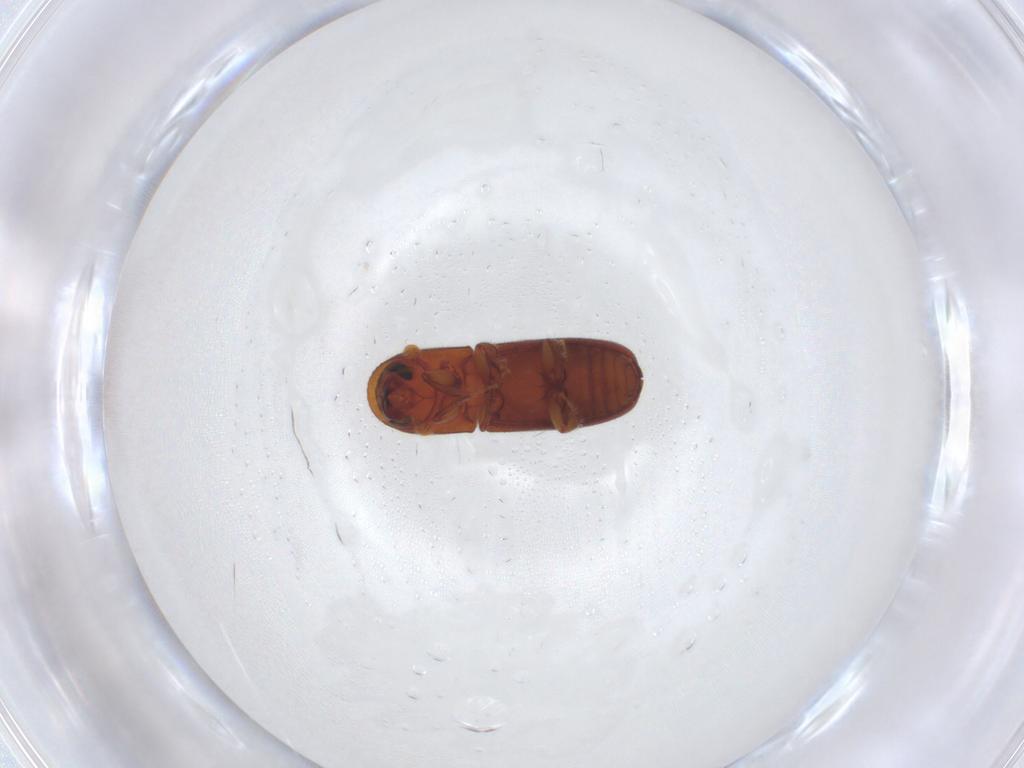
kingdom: Animalia
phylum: Arthropoda
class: Insecta
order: Coleoptera
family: Curculionidae
